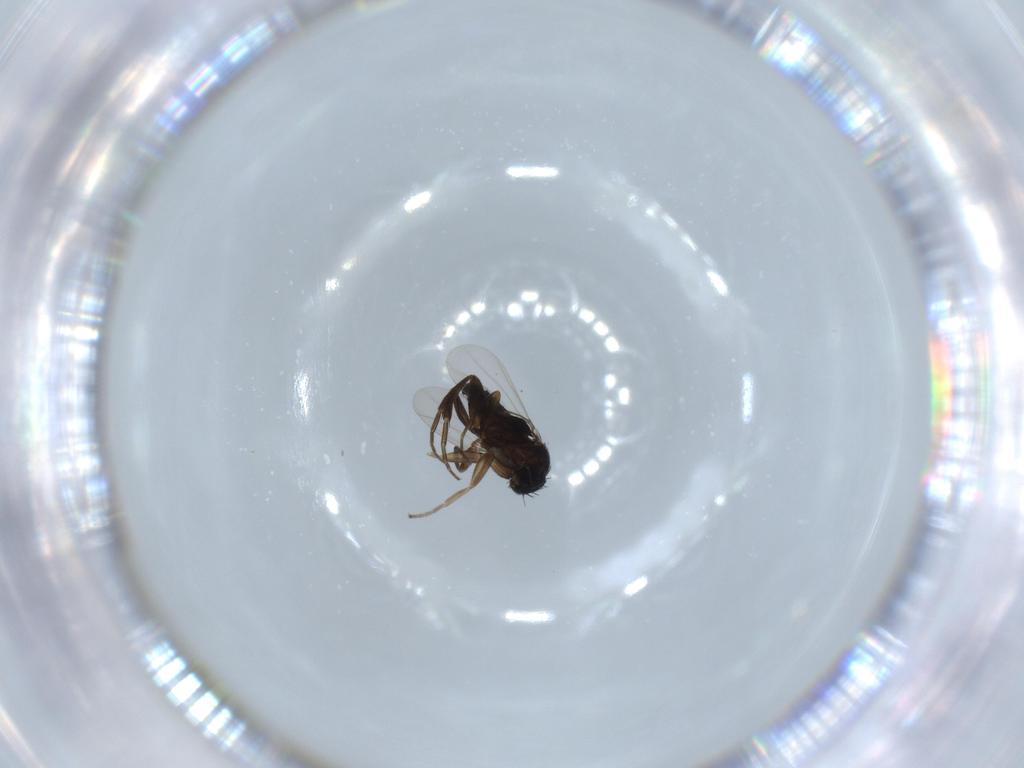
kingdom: Animalia
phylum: Arthropoda
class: Insecta
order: Diptera
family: Phoridae
